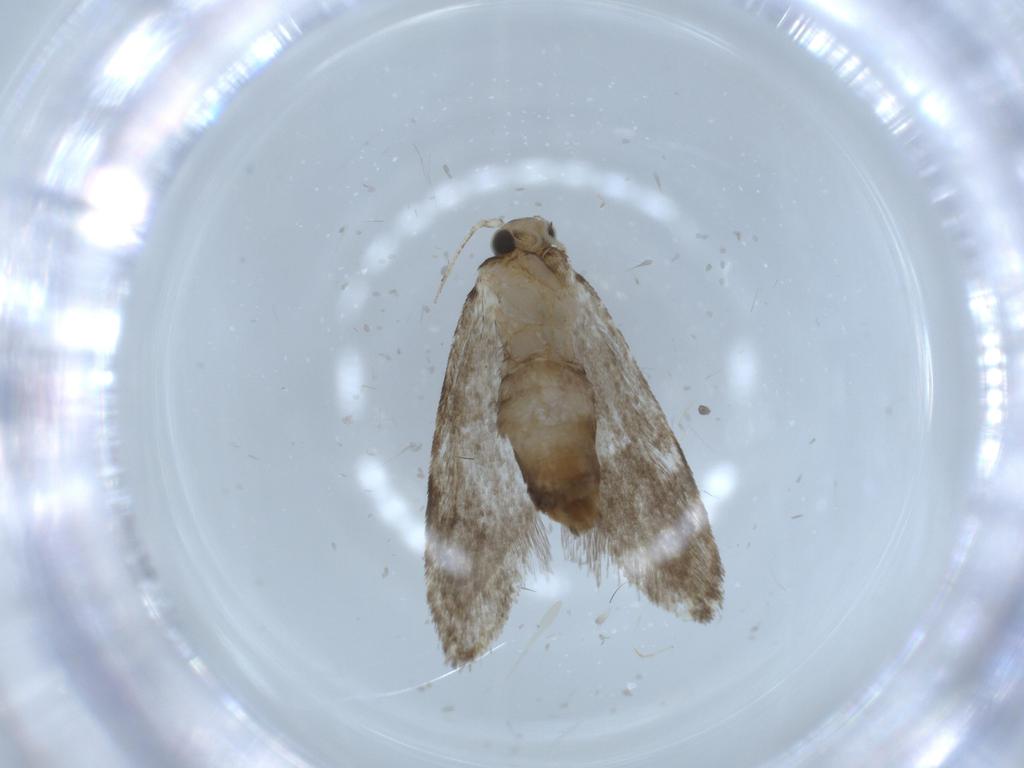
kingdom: Animalia
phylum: Arthropoda
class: Insecta
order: Lepidoptera
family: Tineidae
